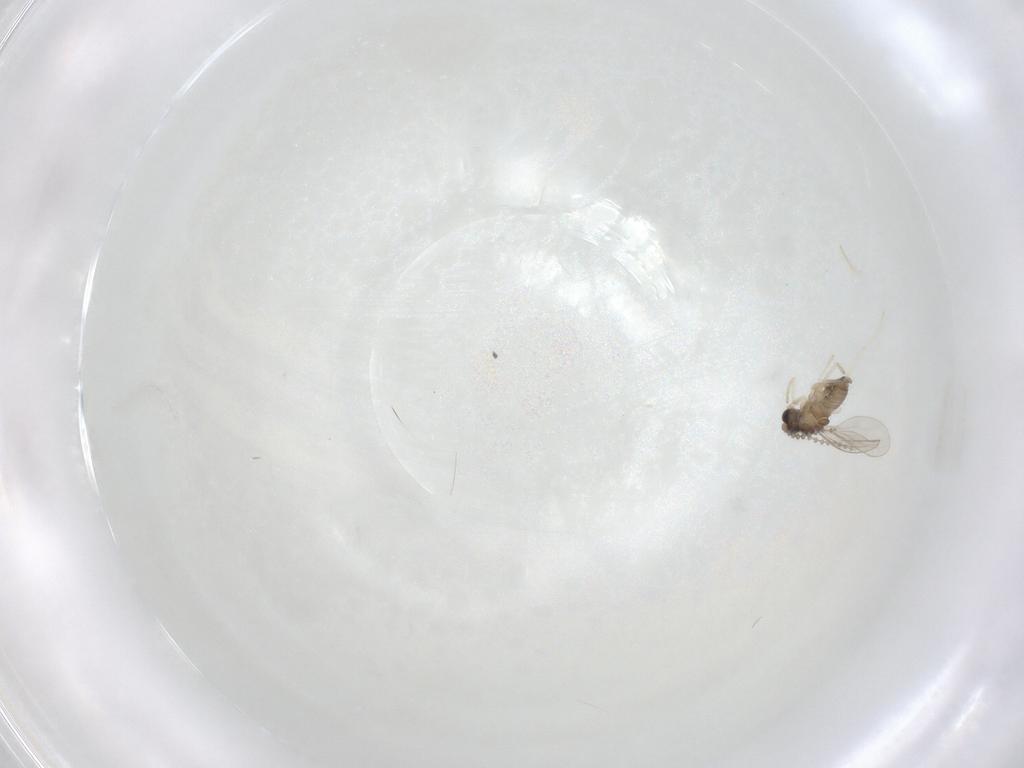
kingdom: Animalia
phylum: Arthropoda
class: Insecta
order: Diptera
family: Cecidomyiidae
